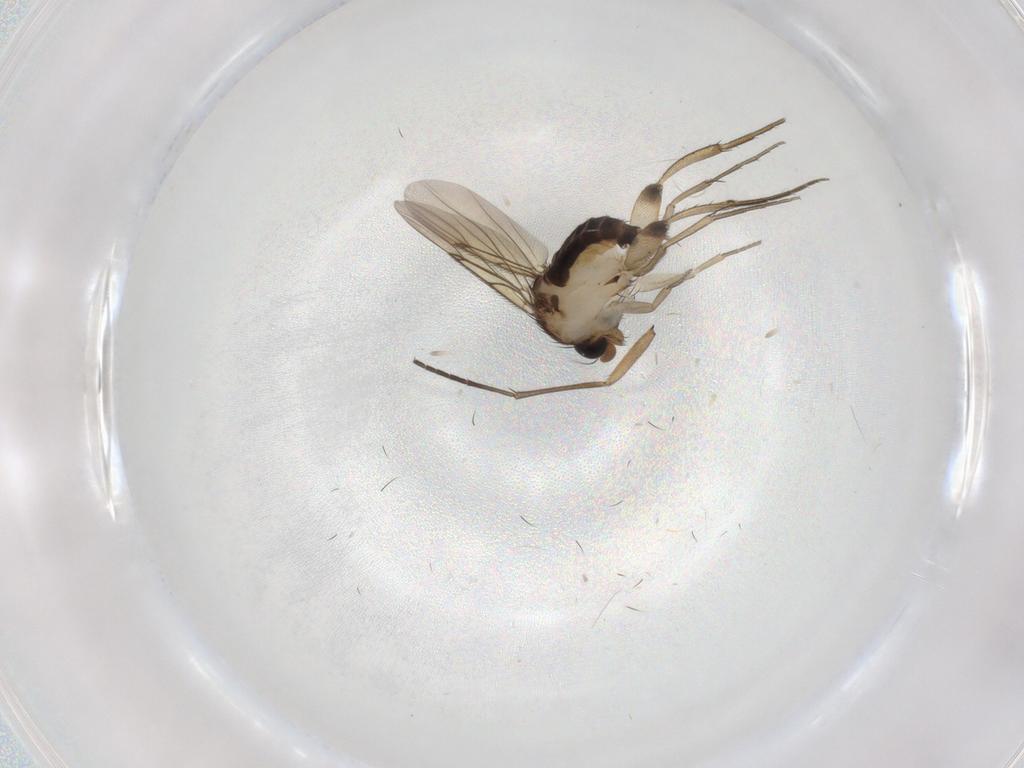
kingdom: Animalia
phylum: Arthropoda
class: Insecta
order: Diptera
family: Phoridae
